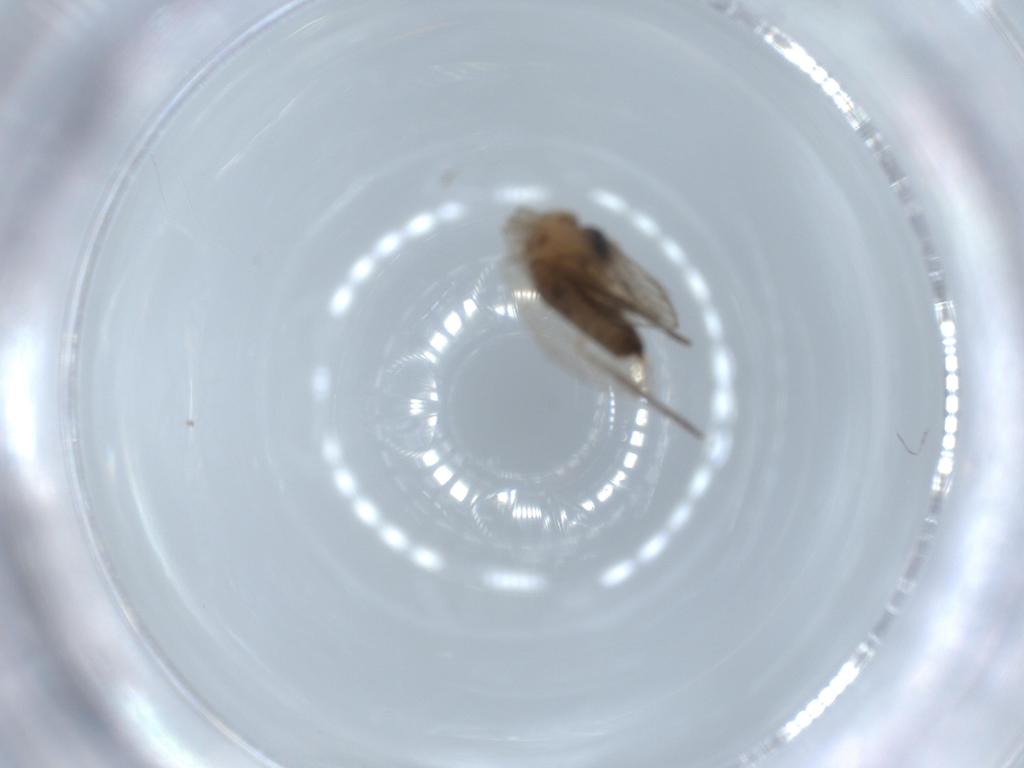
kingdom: Animalia
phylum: Arthropoda
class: Insecta
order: Diptera
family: Psychodidae
